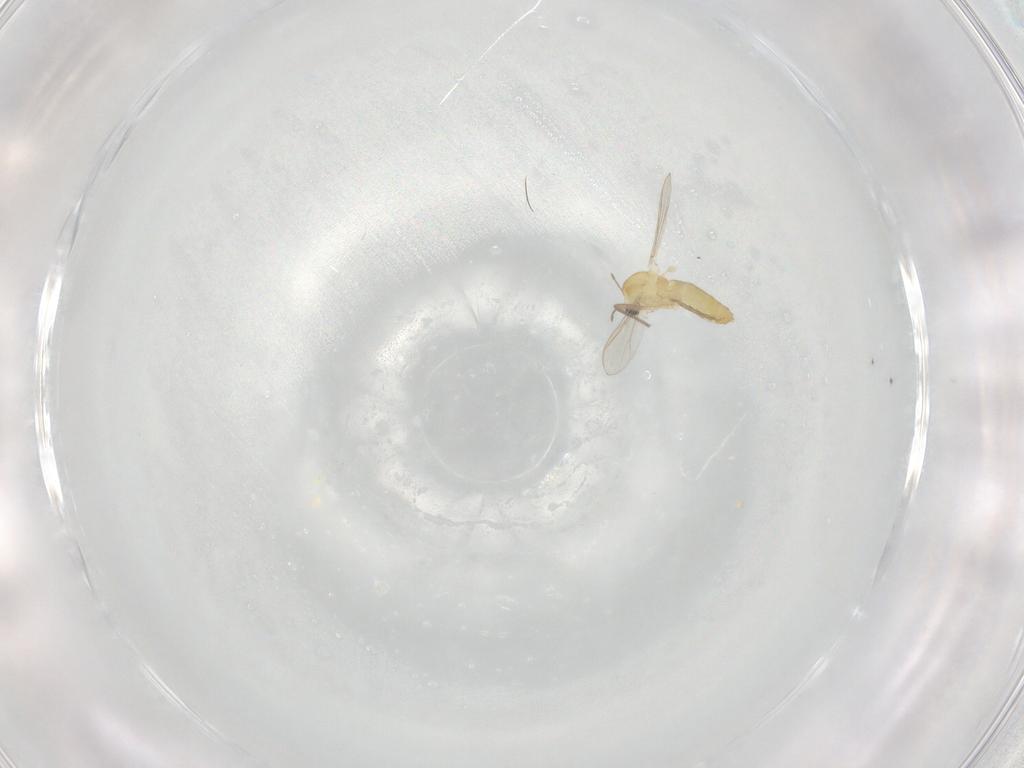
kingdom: Animalia
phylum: Arthropoda
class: Insecta
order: Diptera
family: Chironomidae
